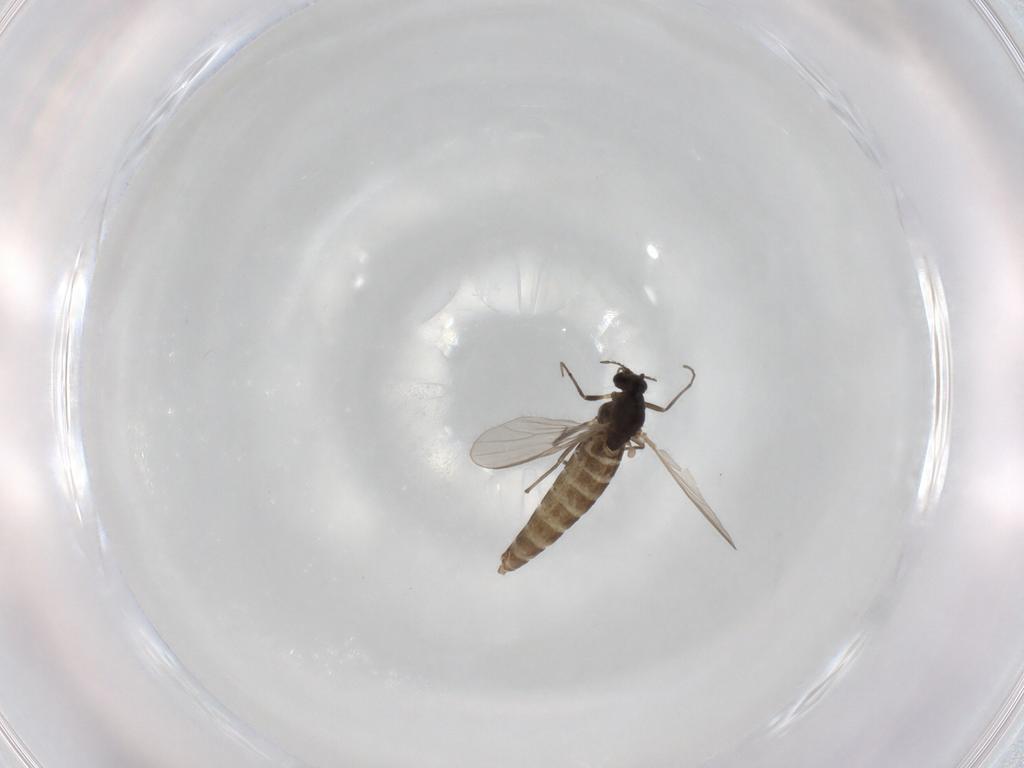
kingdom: Animalia
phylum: Arthropoda
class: Insecta
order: Diptera
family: Chironomidae
